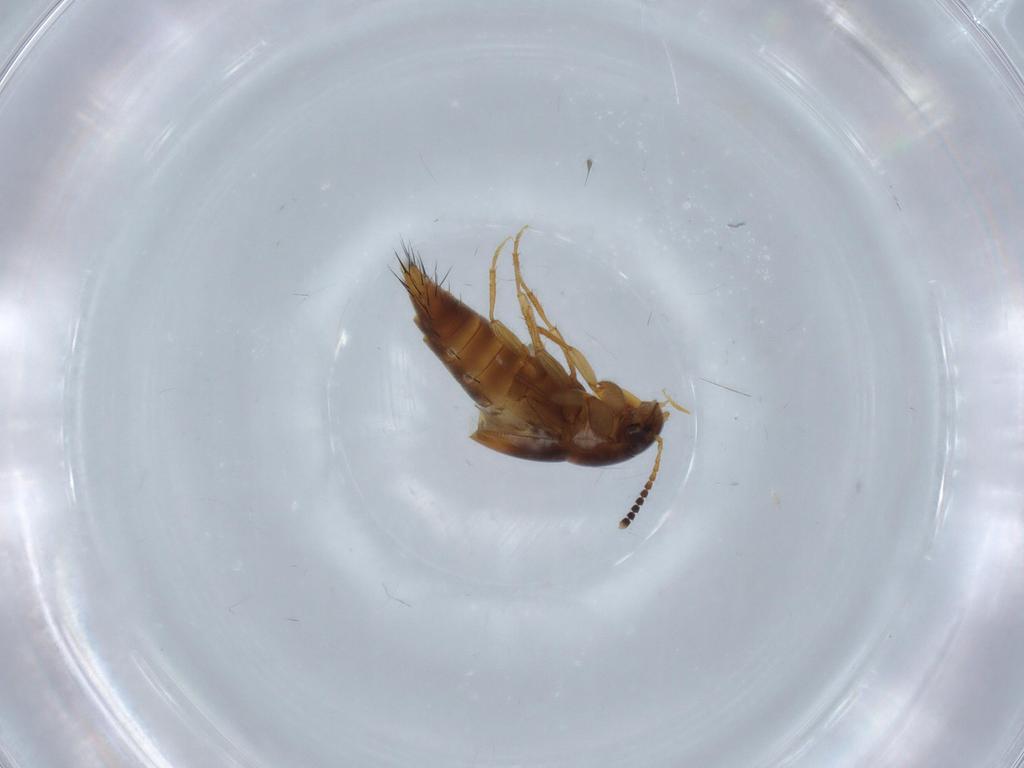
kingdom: Animalia
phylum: Arthropoda
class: Insecta
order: Coleoptera
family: Staphylinidae
